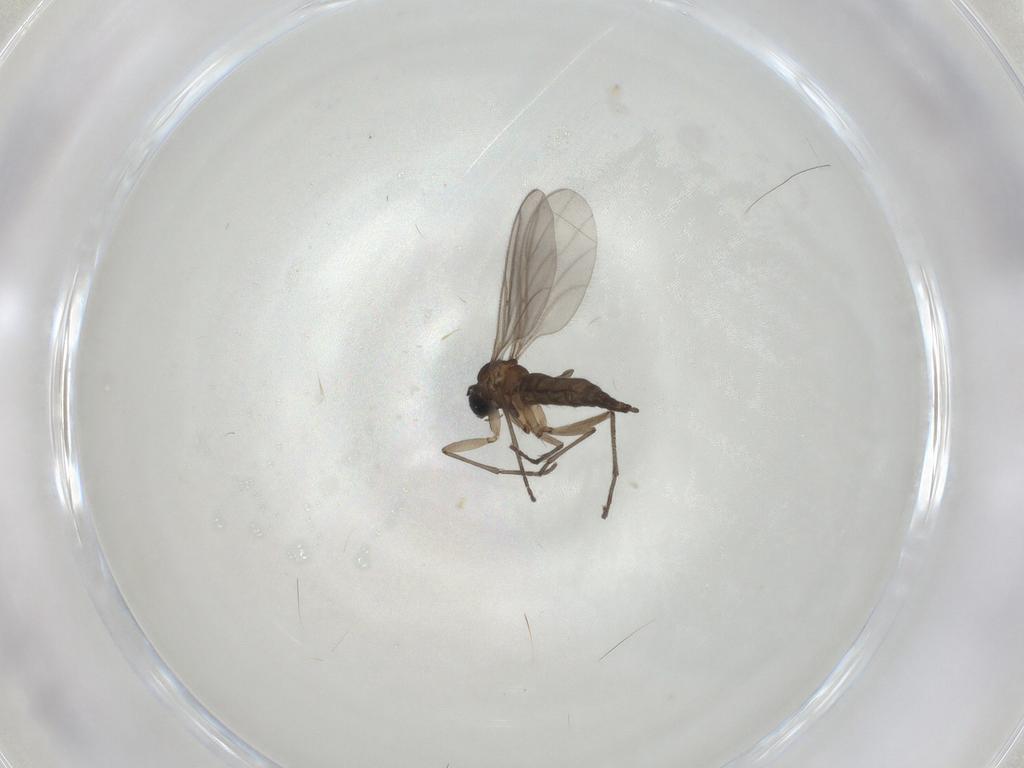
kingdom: Animalia
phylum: Arthropoda
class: Insecta
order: Diptera
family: Sciaridae
